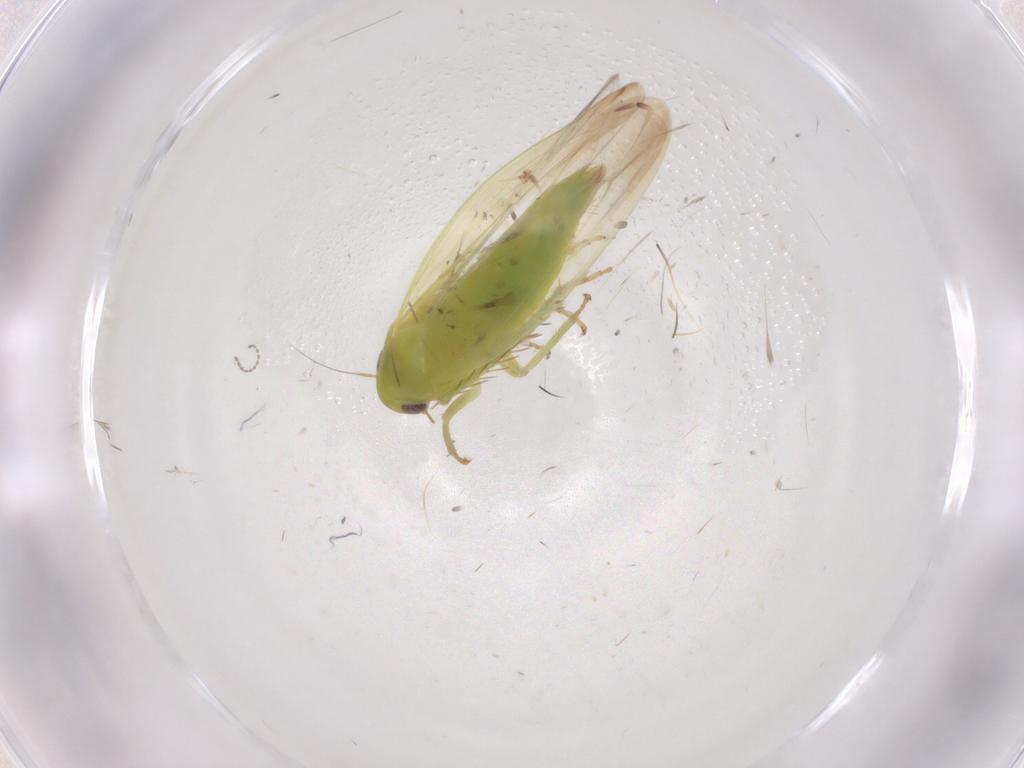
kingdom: Animalia
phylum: Arthropoda
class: Insecta
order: Hemiptera
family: Cicadellidae
